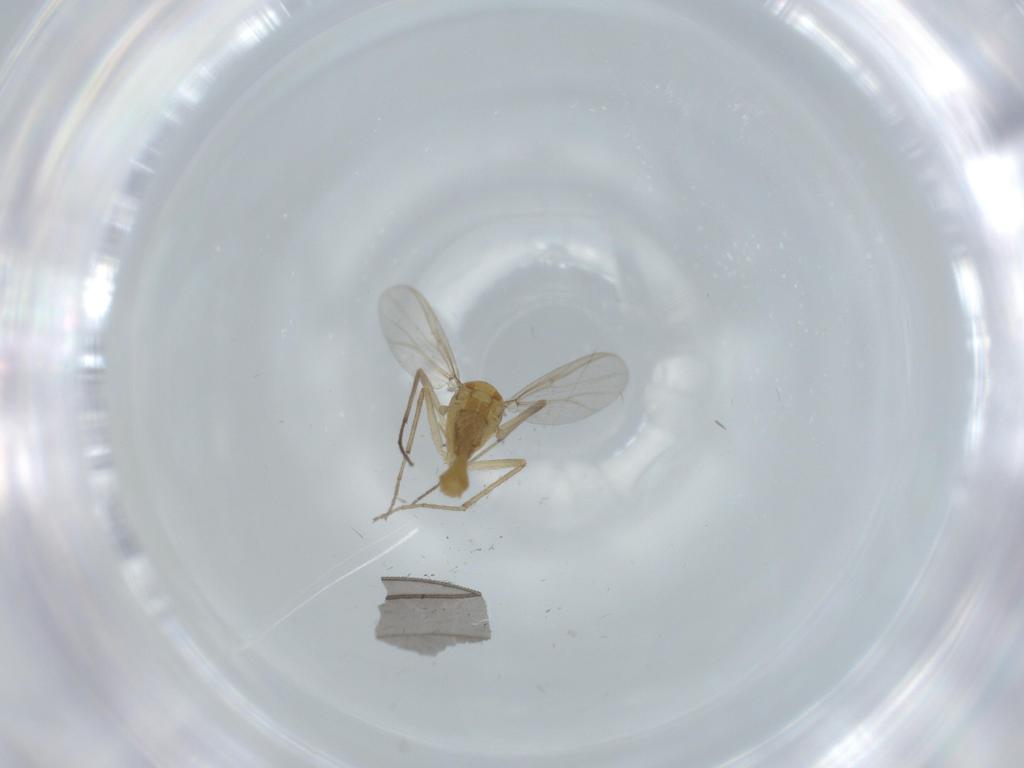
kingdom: Animalia
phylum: Arthropoda
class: Insecta
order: Diptera
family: Chironomidae
